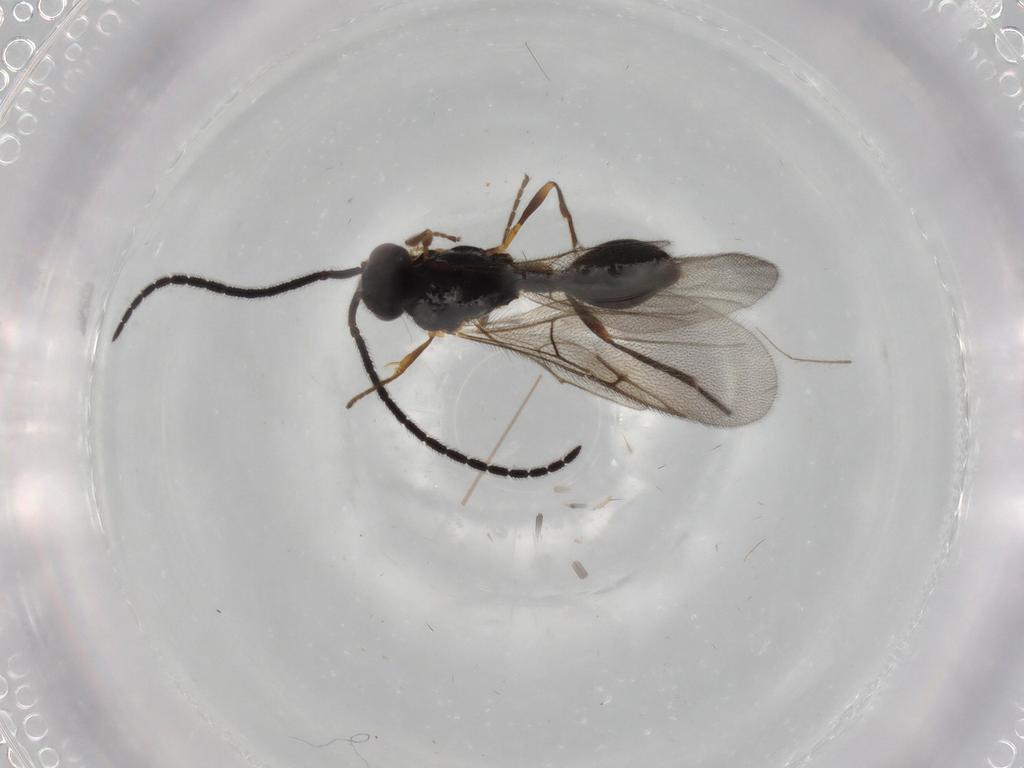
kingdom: Animalia
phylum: Arthropoda
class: Insecta
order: Hymenoptera
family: Diapriidae
